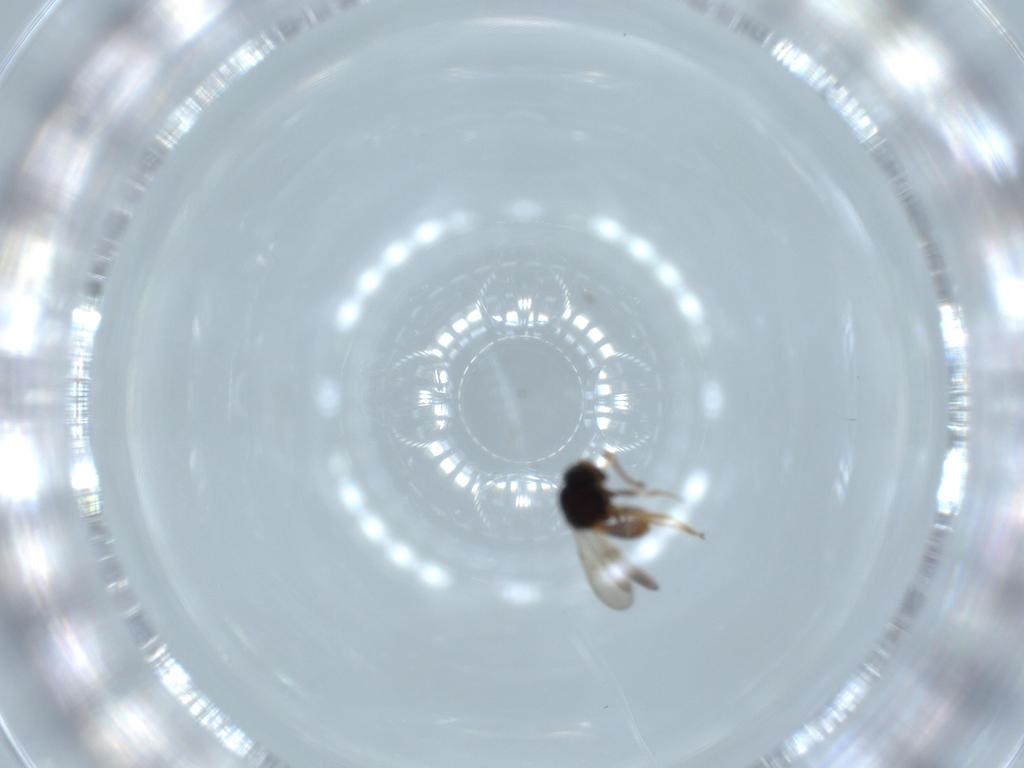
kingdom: Animalia
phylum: Arthropoda
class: Insecta
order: Hymenoptera
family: Scelionidae
